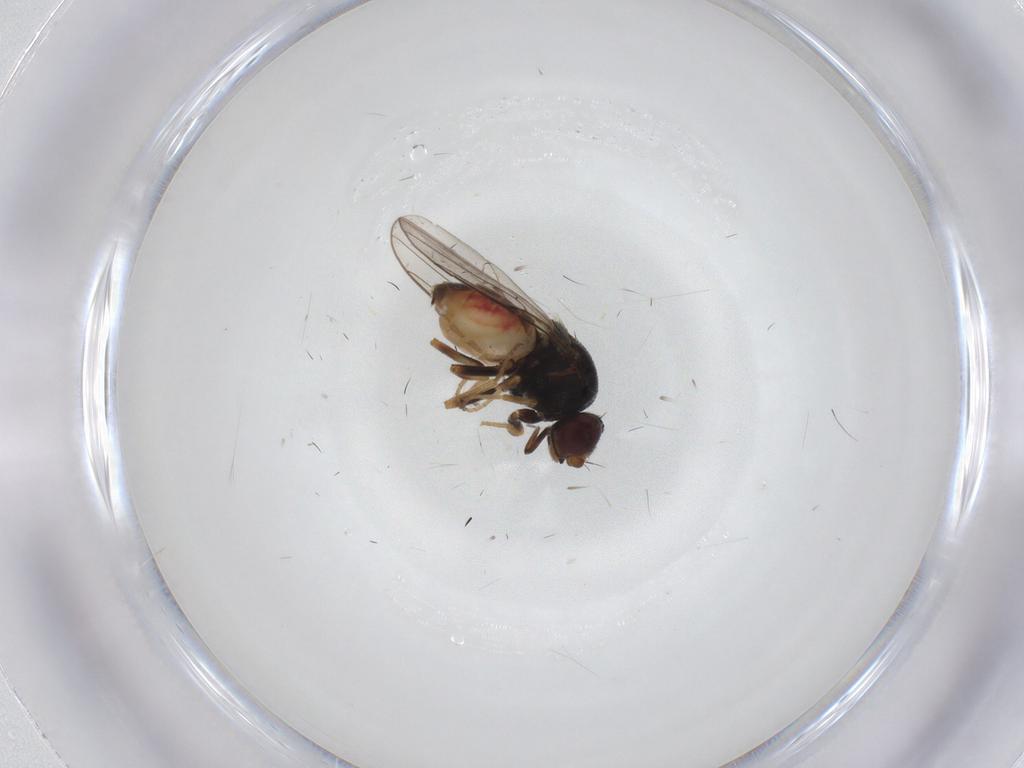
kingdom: Animalia
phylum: Arthropoda
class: Insecta
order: Diptera
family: Chloropidae
